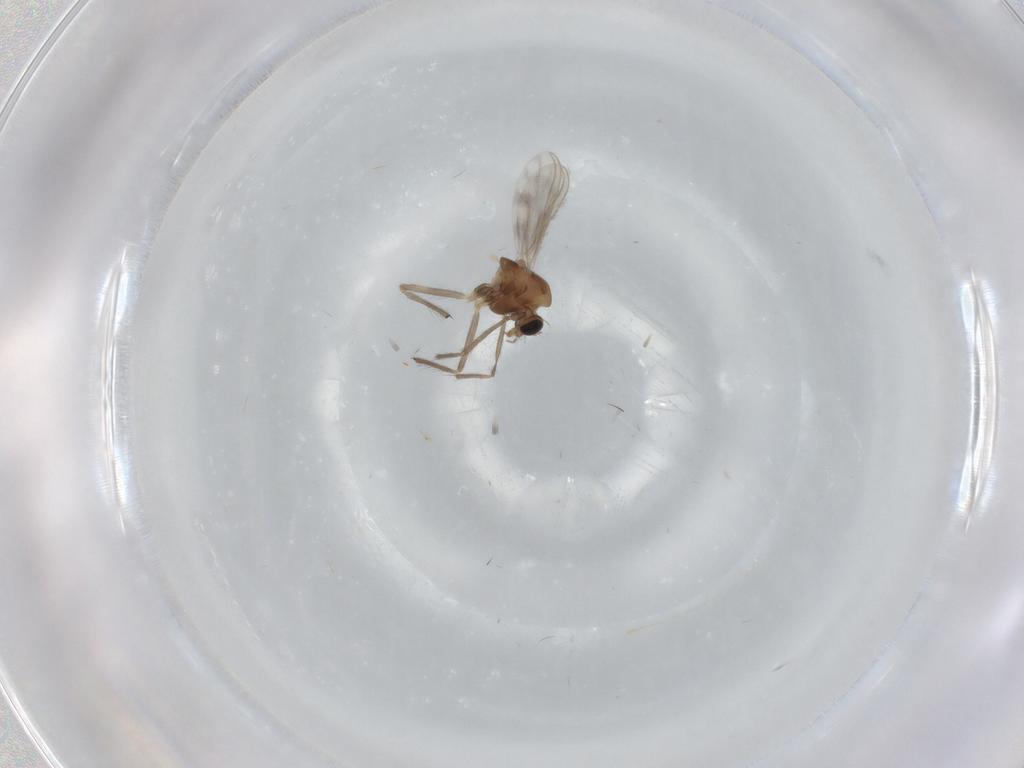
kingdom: Animalia
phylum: Arthropoda
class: Insecta
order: Diptera
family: Chironomidae
